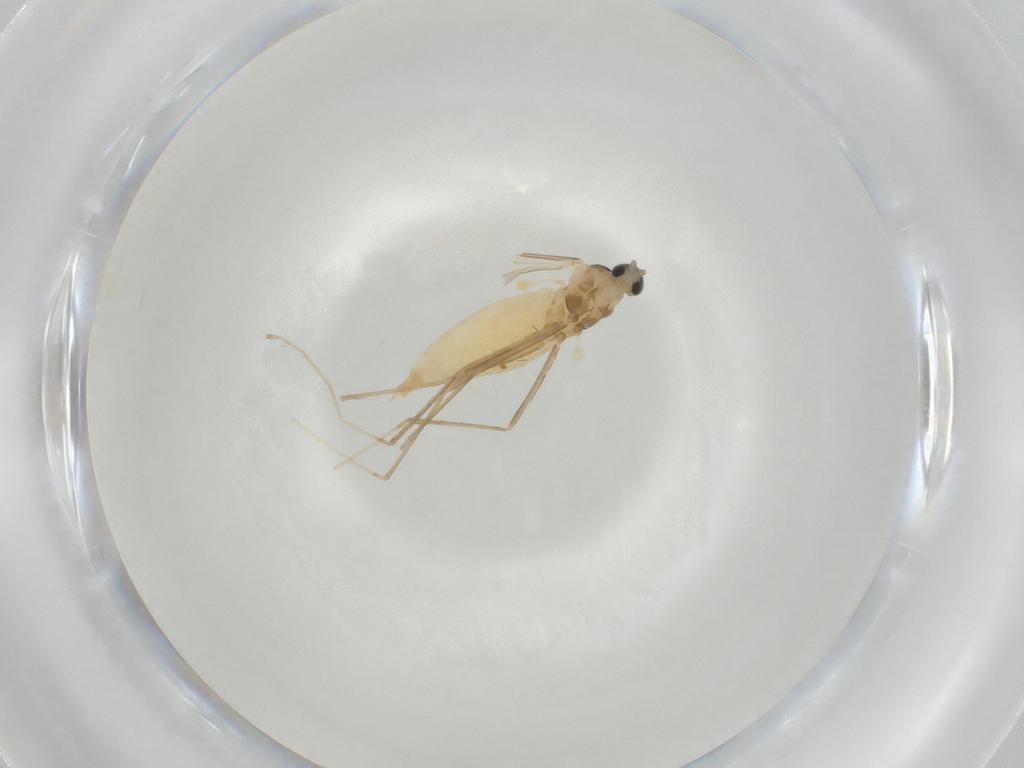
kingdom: Animalia
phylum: Arthropoda
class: Insecta
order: Diptera
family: Cecidomyiidae
